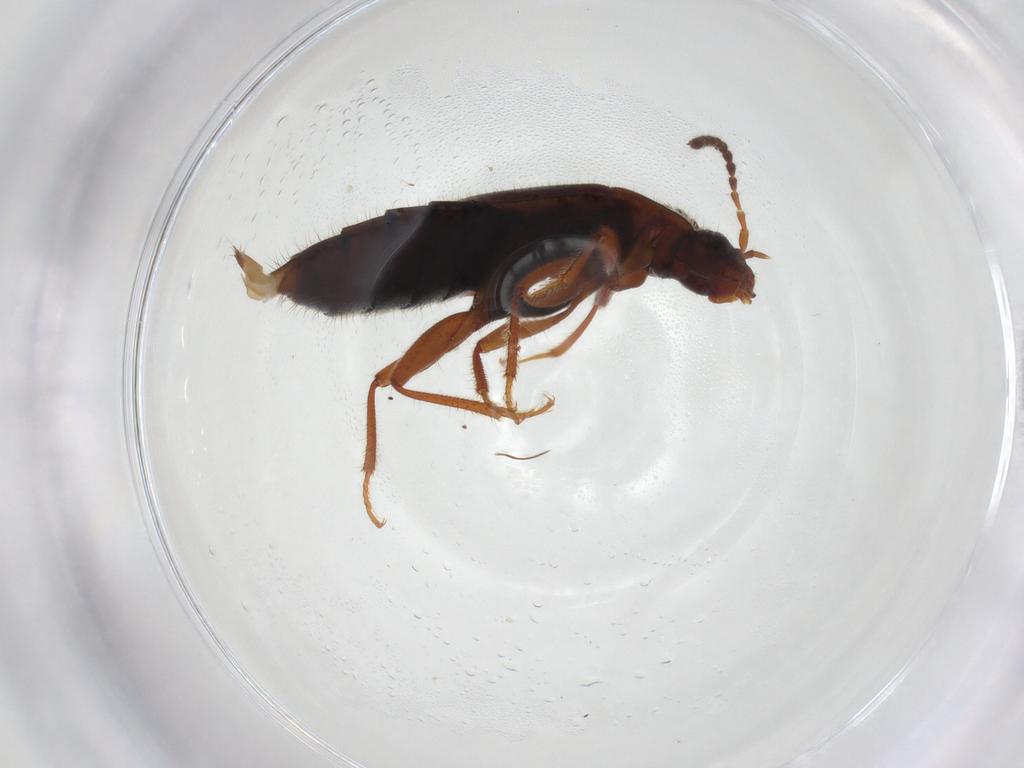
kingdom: Animalia
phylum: Arthropoda
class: Insecta
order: Coleoptera
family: Staphylinidae
